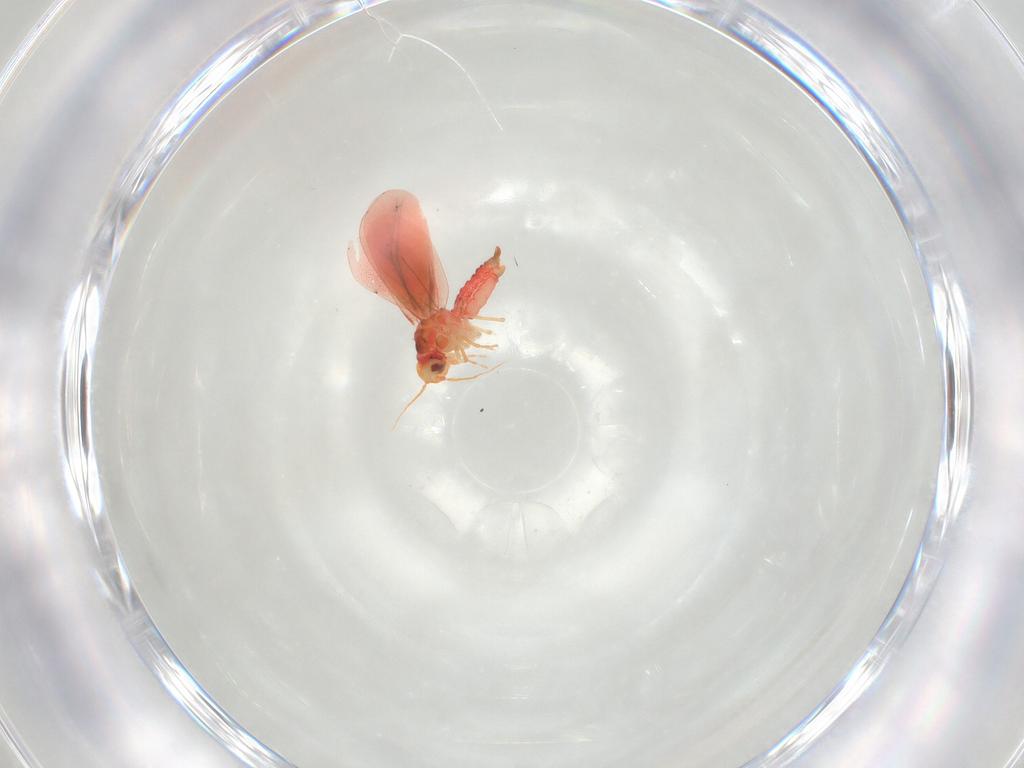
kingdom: Animalia
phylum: Arthropoda
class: Insecta
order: Hemiptera
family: Aleyrodidae
